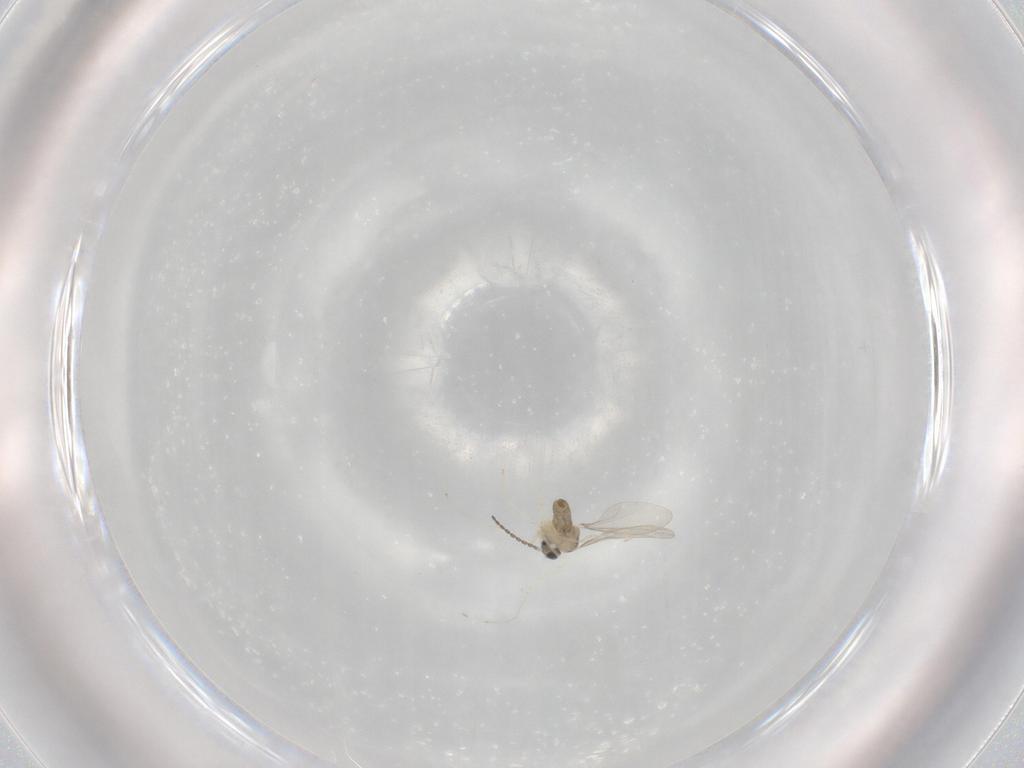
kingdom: Animalia
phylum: Arthropoda
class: Insecta
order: Diptera
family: Cecidomyiidae
